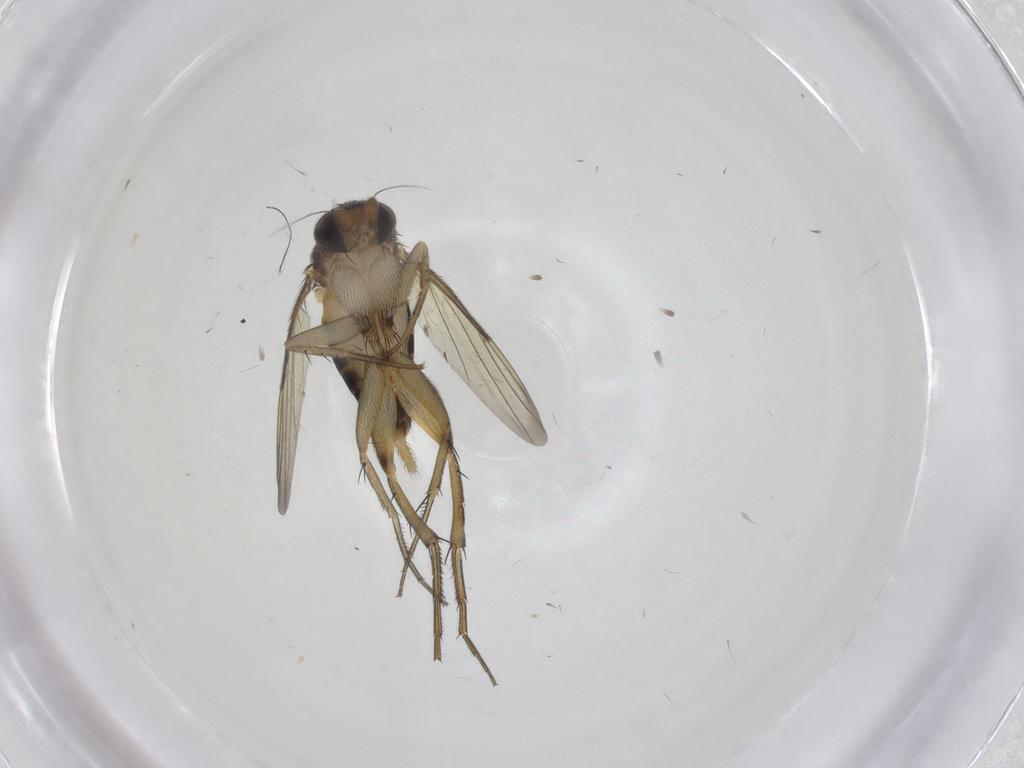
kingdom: Animalia
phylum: Arthropoda
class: Insecta
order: Diptera
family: Phoridae
